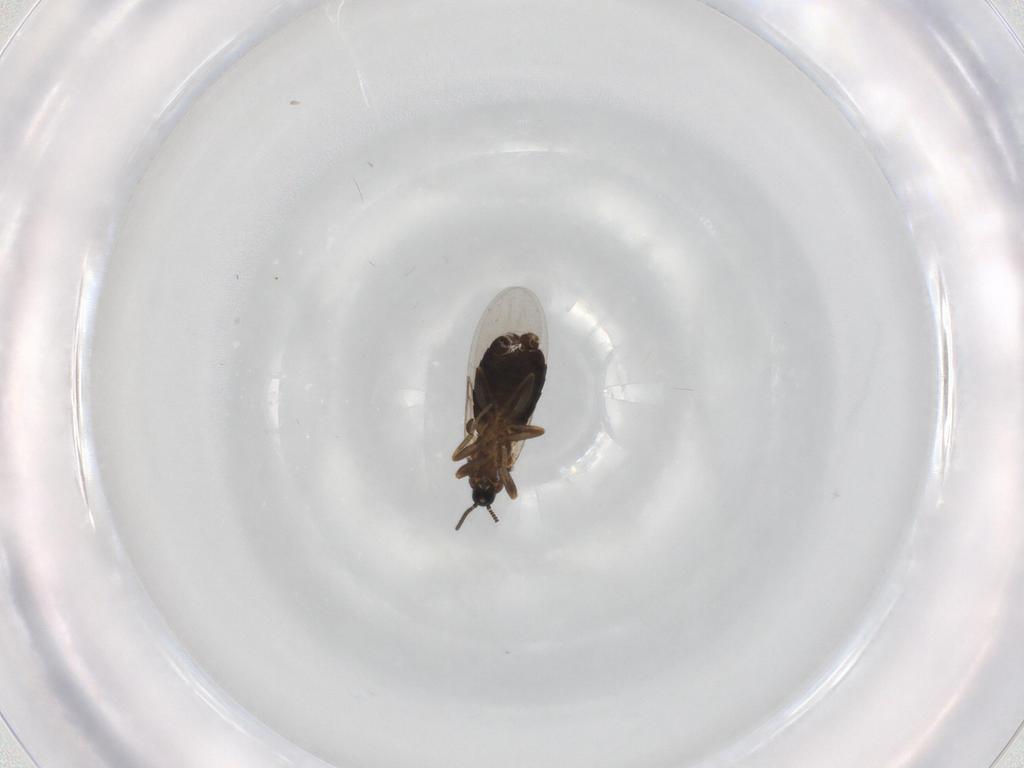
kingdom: Animalia
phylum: Arthropoda
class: Insecta
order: Diptera
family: Scatopsidae
